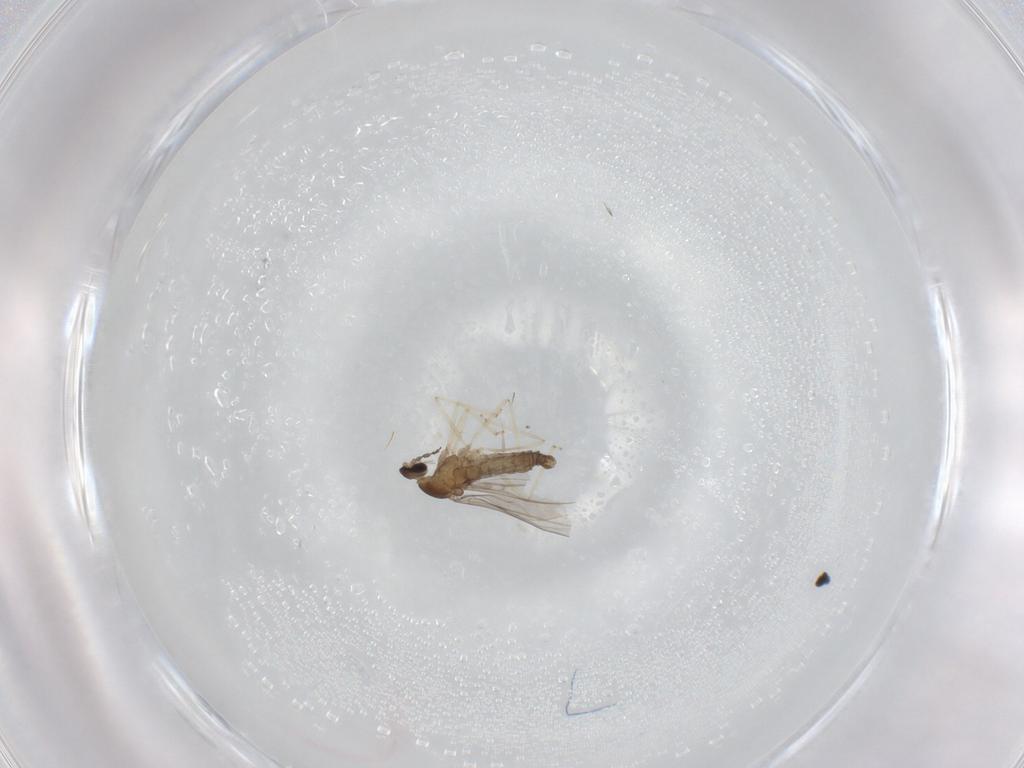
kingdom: Animalia
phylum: Arthropoda
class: Insecta
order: Diptera
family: Cecidomyiidae
